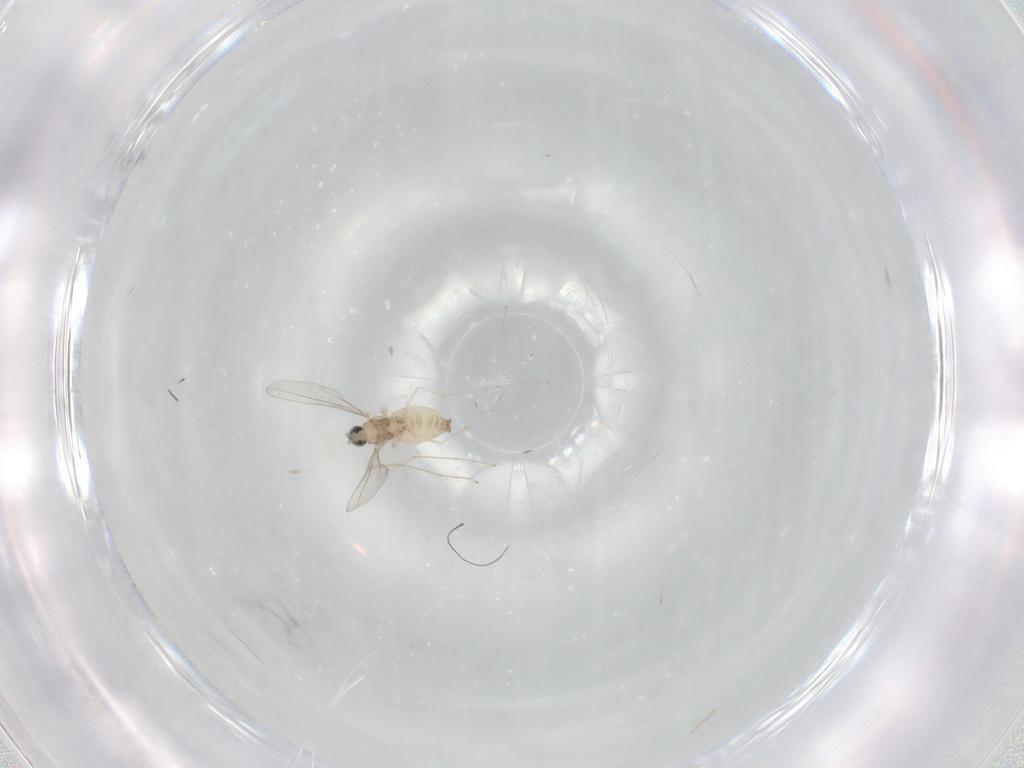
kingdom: Animalia
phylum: Arthropoda
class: Insecta
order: Diptera
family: Cecidomyiidae
